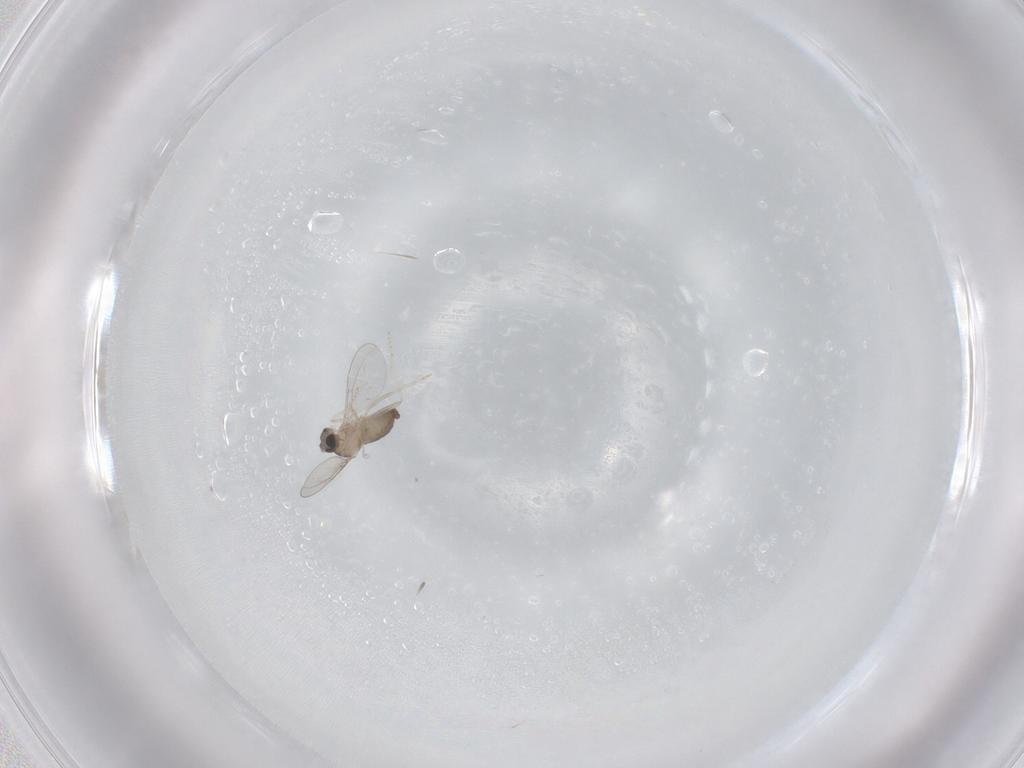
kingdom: Animalia
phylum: Arthropoda
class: Insecta
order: Diptera
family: Cecidomyiidae
